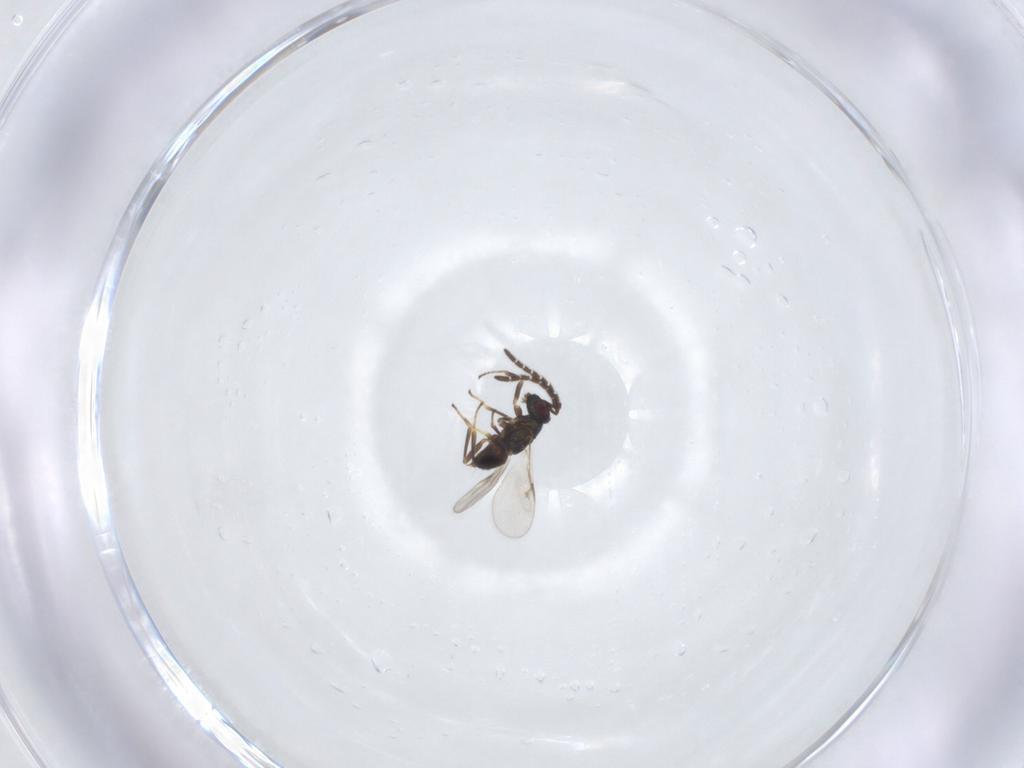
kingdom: Animalia
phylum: Arthropoda
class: Insecta
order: Hymenoptera
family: Encyrtidae
